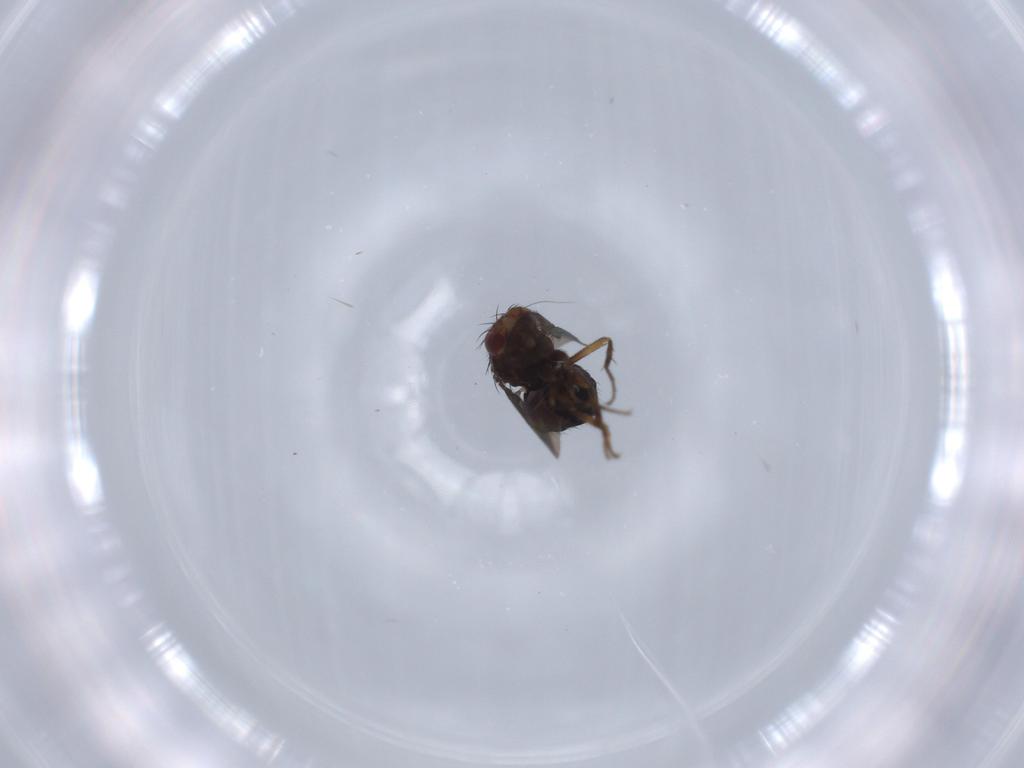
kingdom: Animalia
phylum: Arthropoda
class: Insecta
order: Diptera
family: Sphaeroceridae
